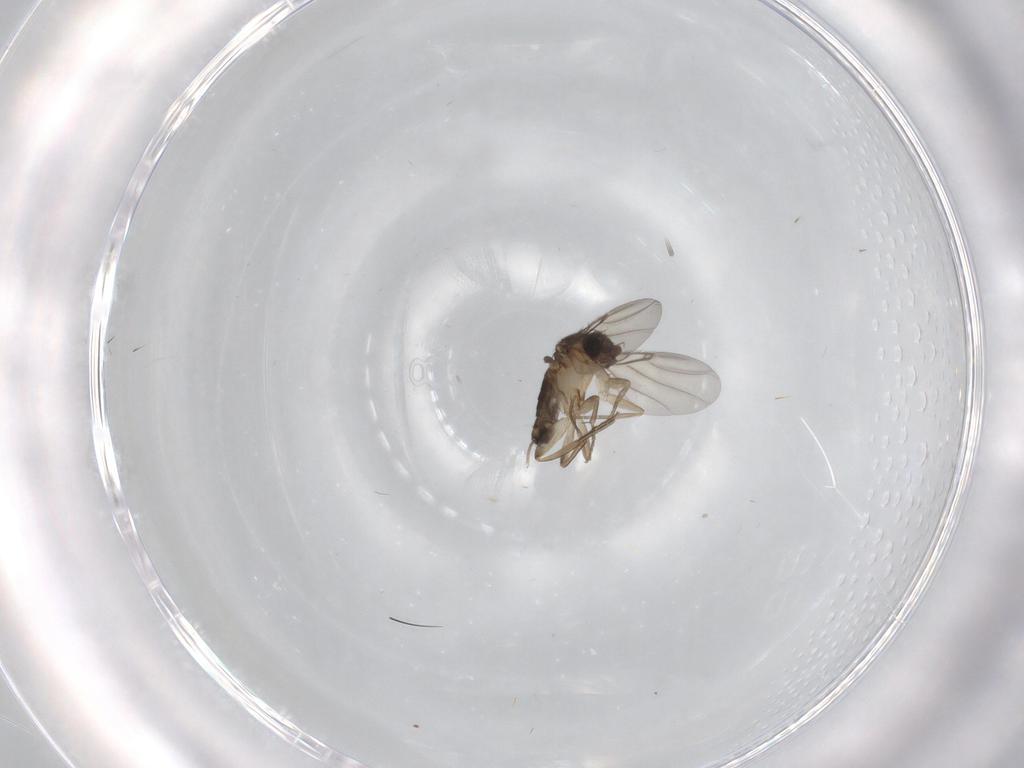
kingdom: Animalia
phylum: Arthropoda
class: Insecta
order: Diptera
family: Phoridae
